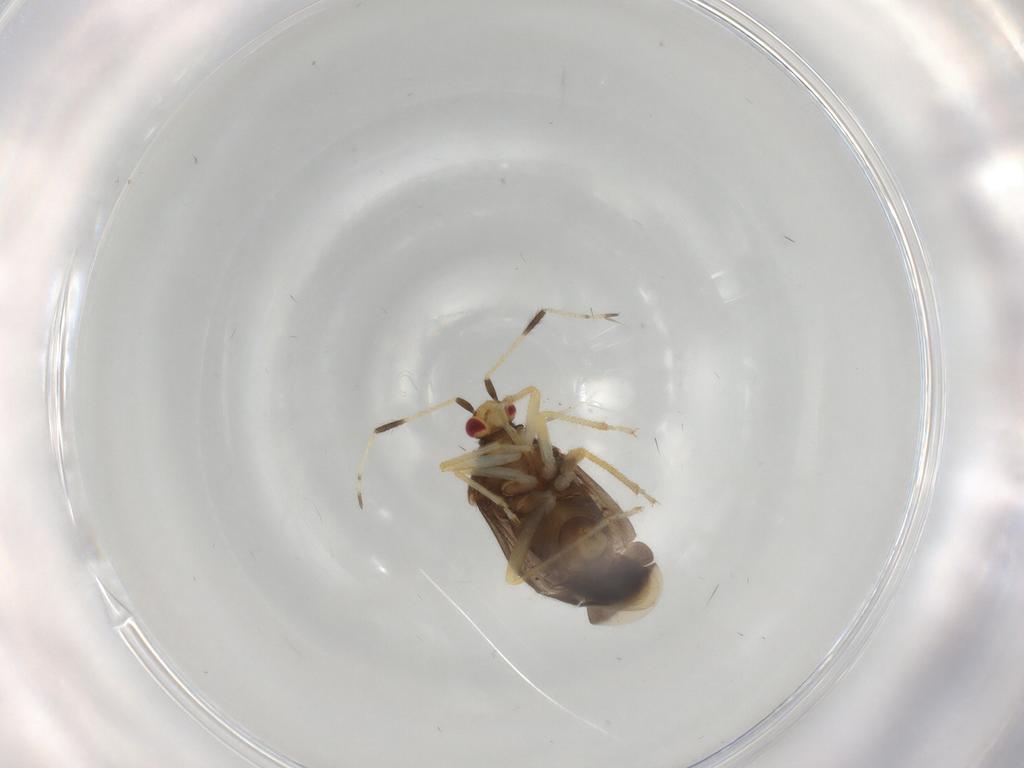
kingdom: Animalia
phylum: Arthropoda
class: Insecta
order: Hemiptera
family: Miridae
